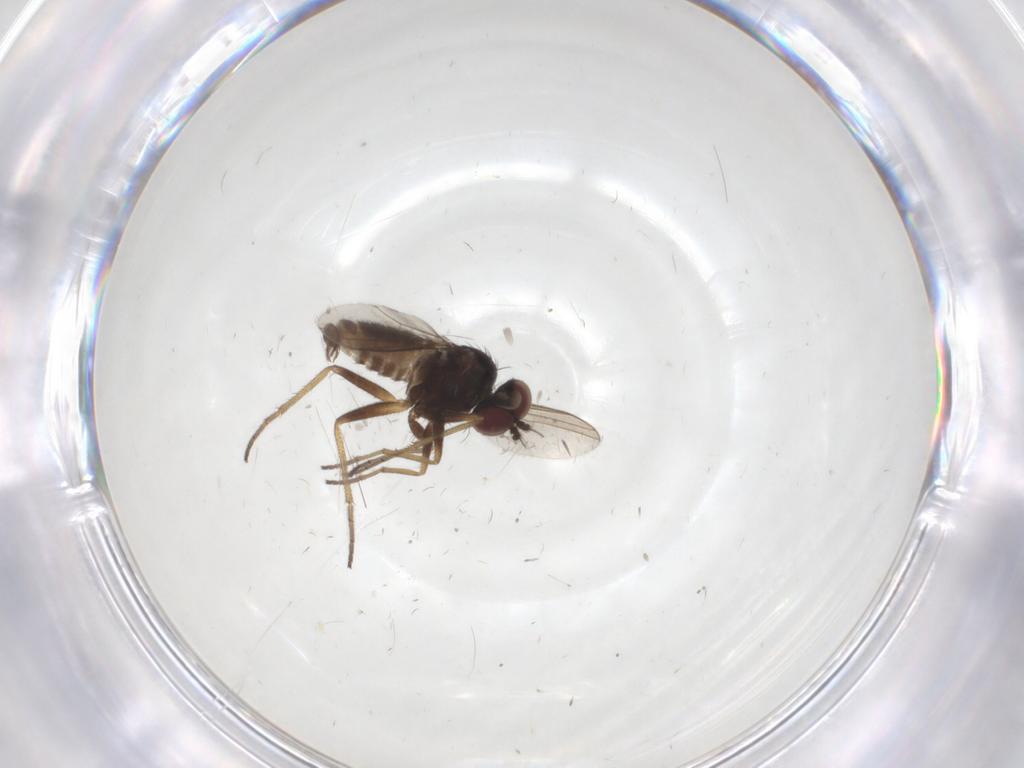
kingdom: Animalia
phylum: Arthropoda
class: Insecta
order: Diptera
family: Dolichopodidae
